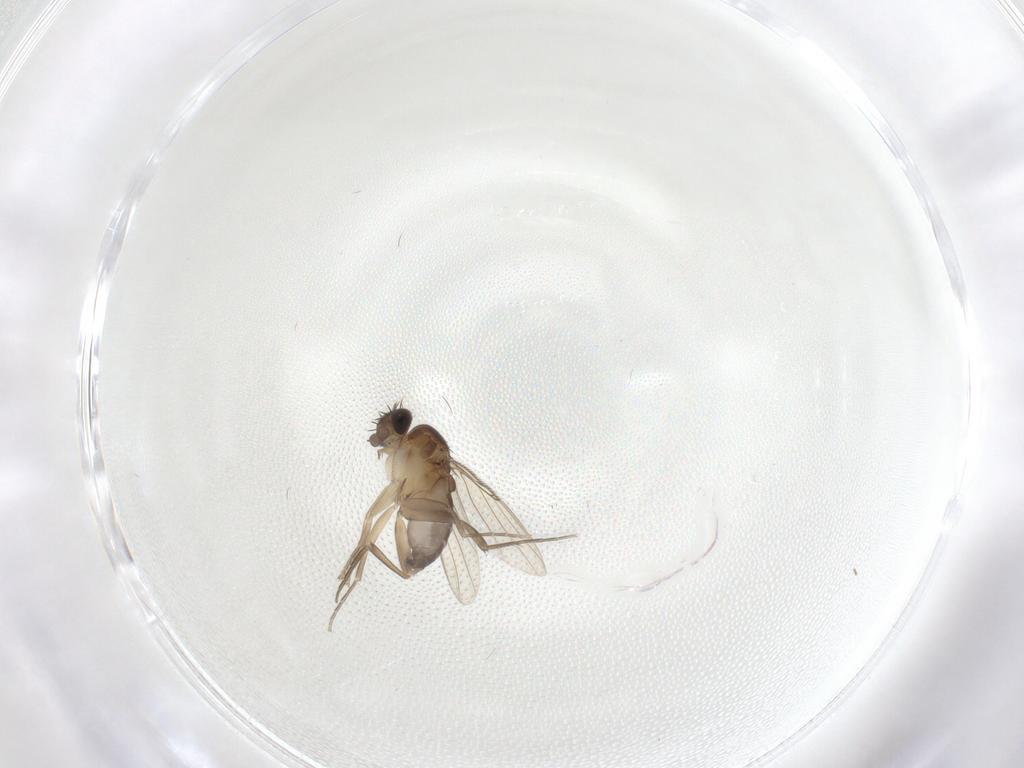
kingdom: Animalia
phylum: Arthropoda
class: Insecta
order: Diptera
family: Phoridae
